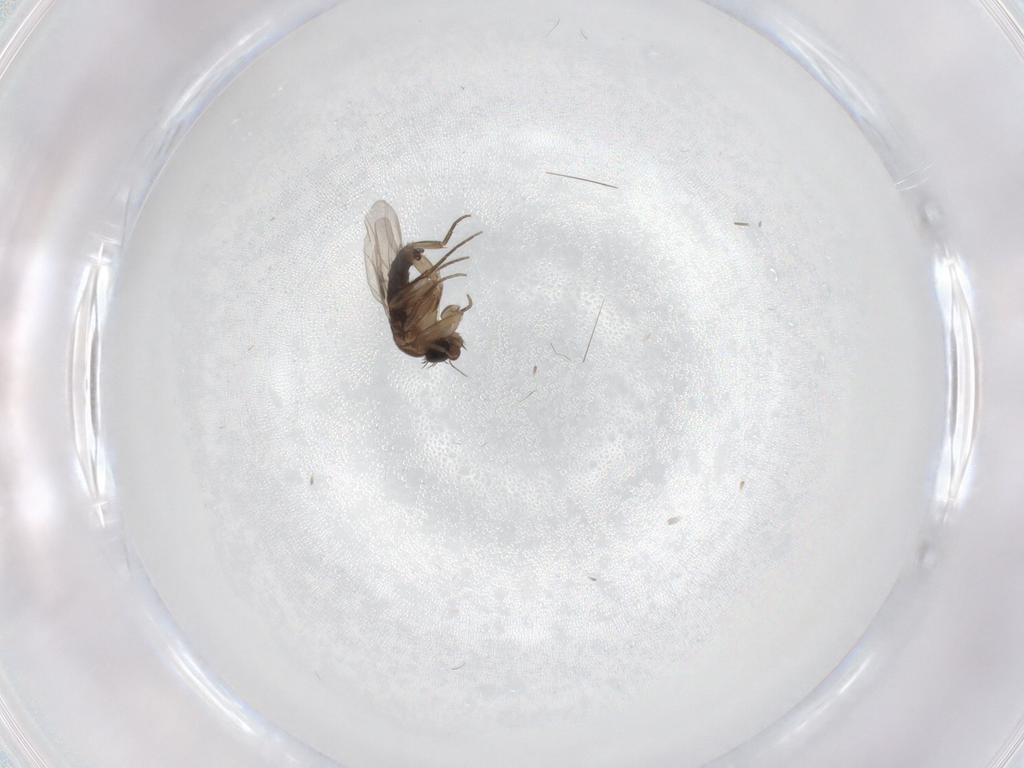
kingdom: Animalia
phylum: Arthropoda
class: Insecta
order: Diptera
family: Phoridae
